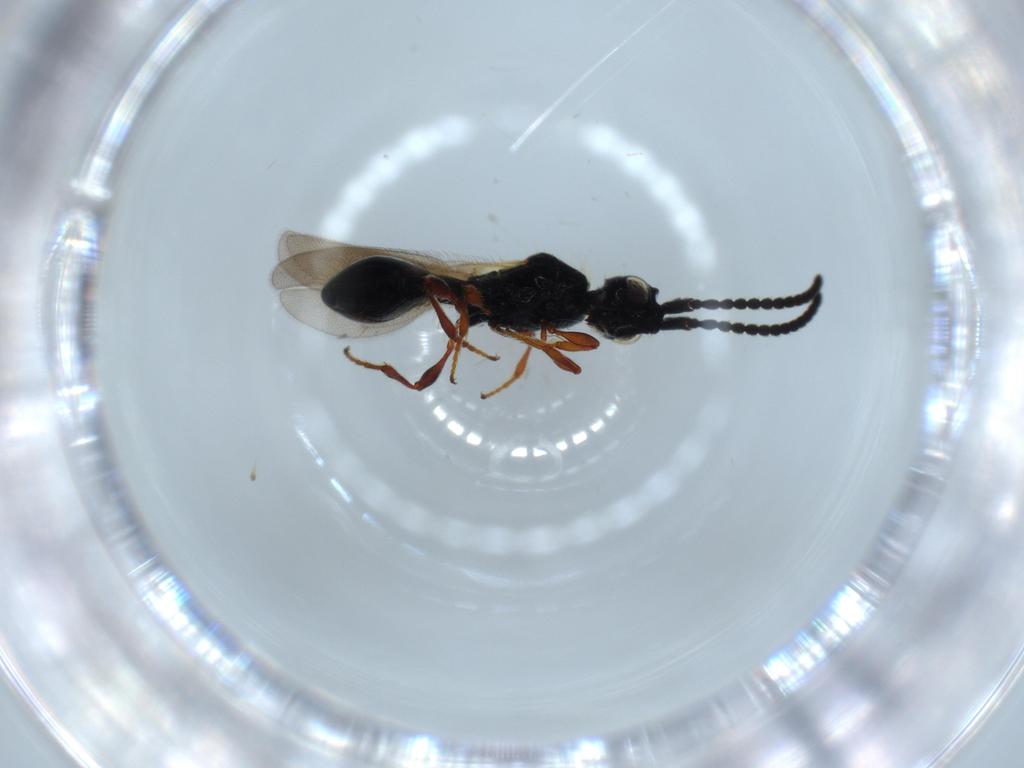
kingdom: Animalia
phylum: Arthropoda
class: Insecta
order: Hymenoptera
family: Diapriidae
